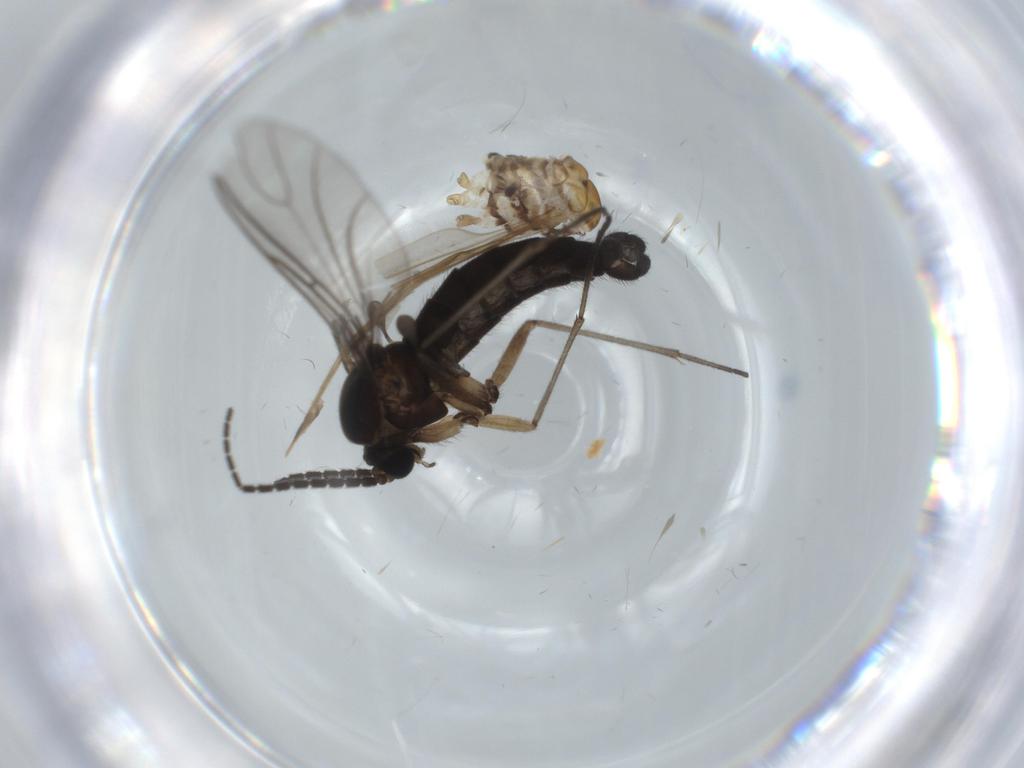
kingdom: Animalia
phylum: Arthropoda
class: Insecta
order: Diptera
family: Limoniidae
